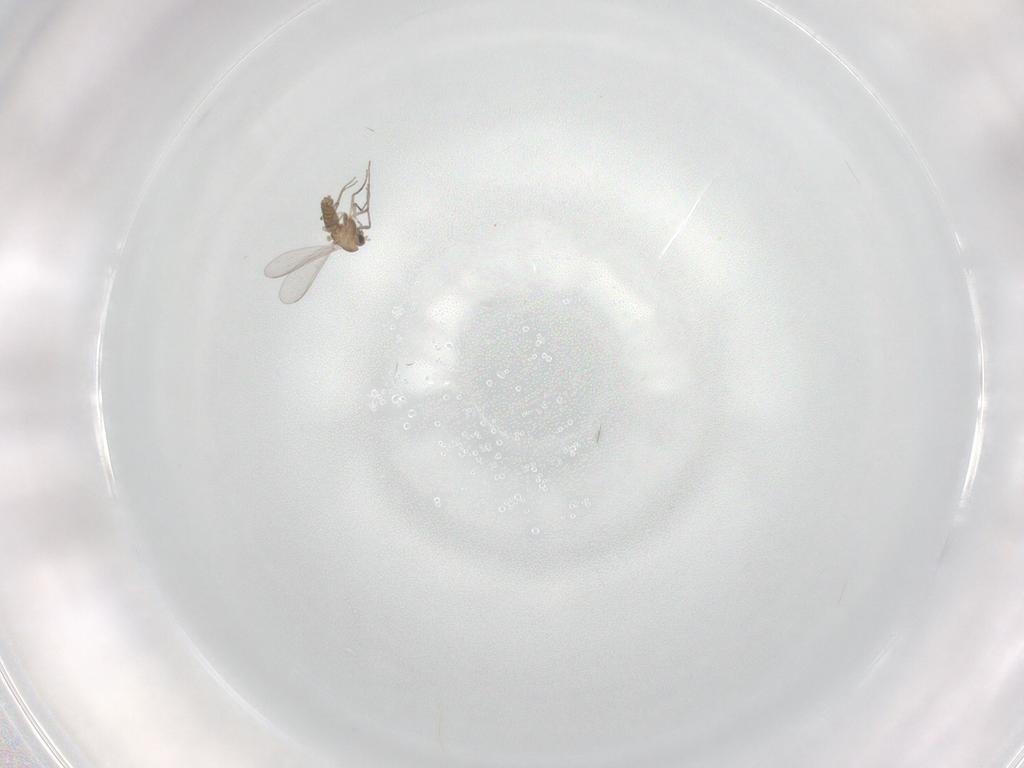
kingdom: Animalia
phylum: Arthropoda
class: Insecta
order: Diptera
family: Chironomidae
